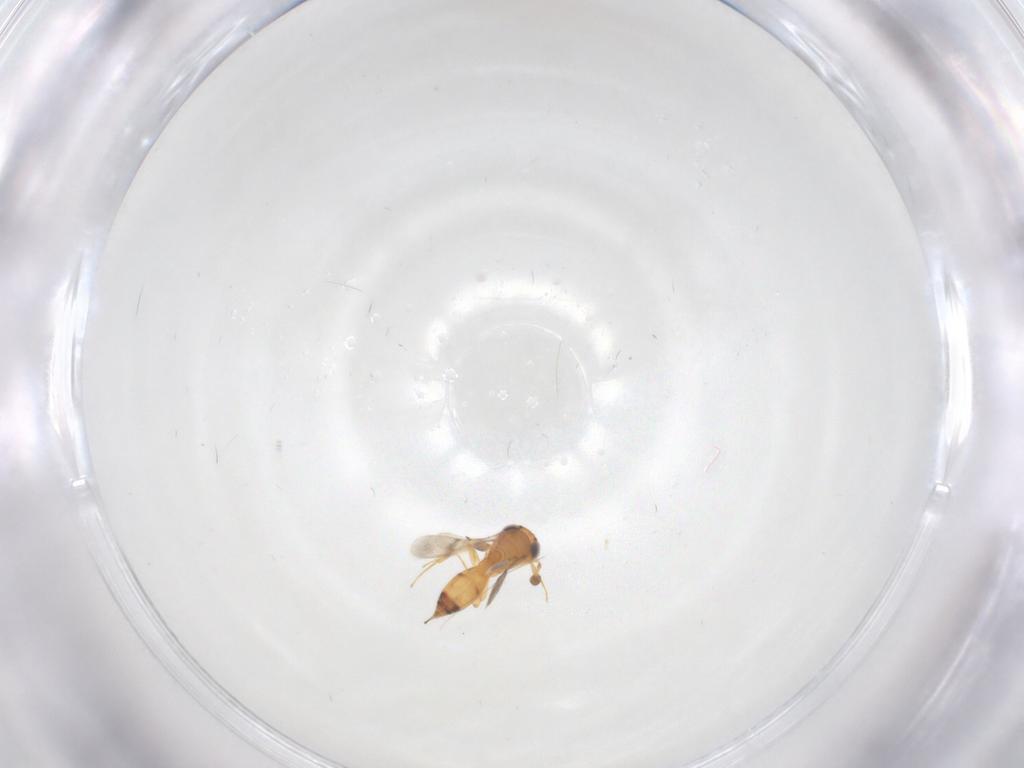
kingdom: Animalia
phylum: Arthropoda
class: Insecta
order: Hymenoptera
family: Scelionidae
